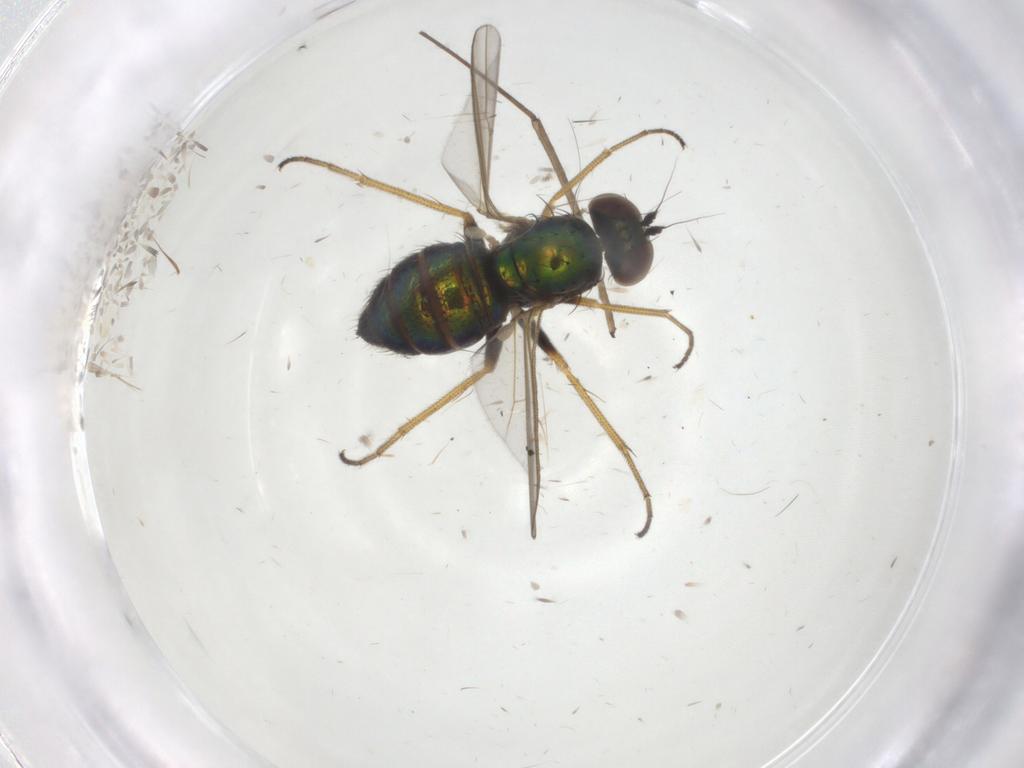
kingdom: Animalia
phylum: Arthropoda
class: Insecta
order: Diptera
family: Dolichopodidae
